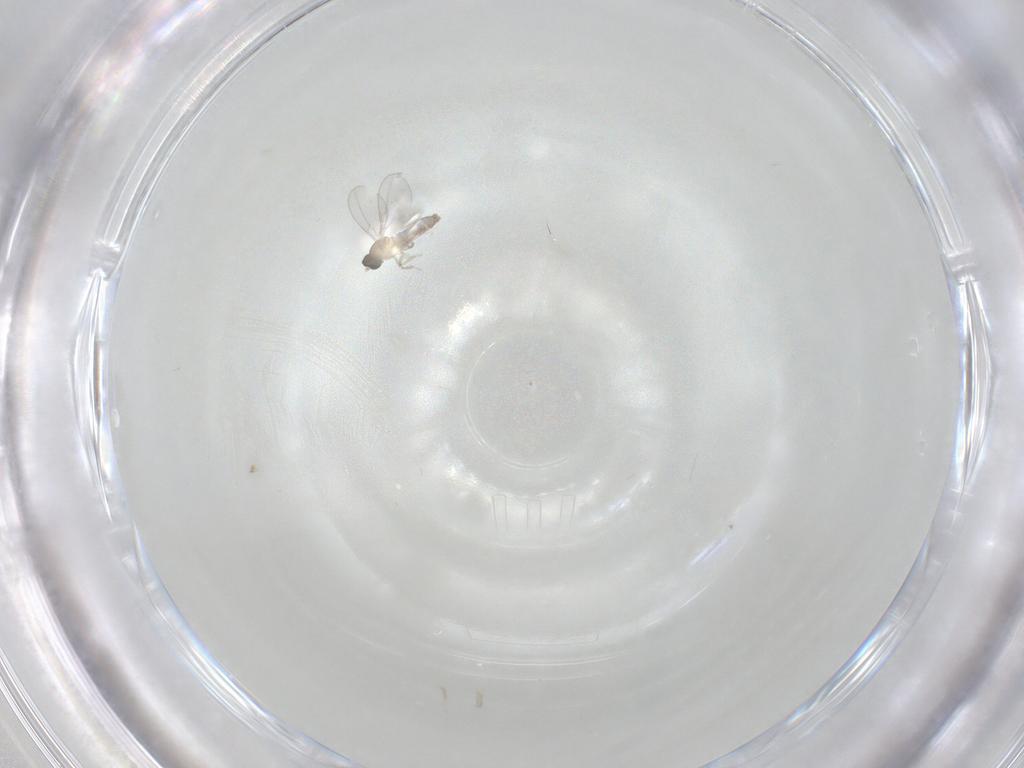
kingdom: Animalia
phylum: Arthropoda
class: Insecta
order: Diptera
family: Cecidomyiidae
